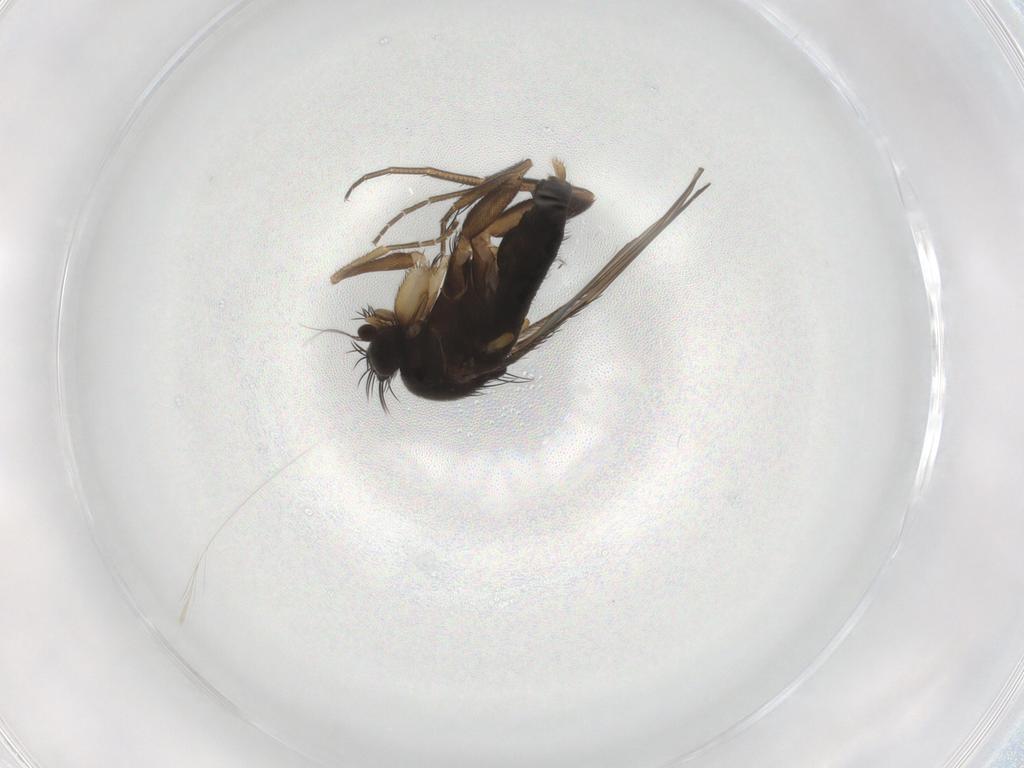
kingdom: Animalia
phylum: Arthropoda
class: Insecta
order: Diptera
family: Phoridae
